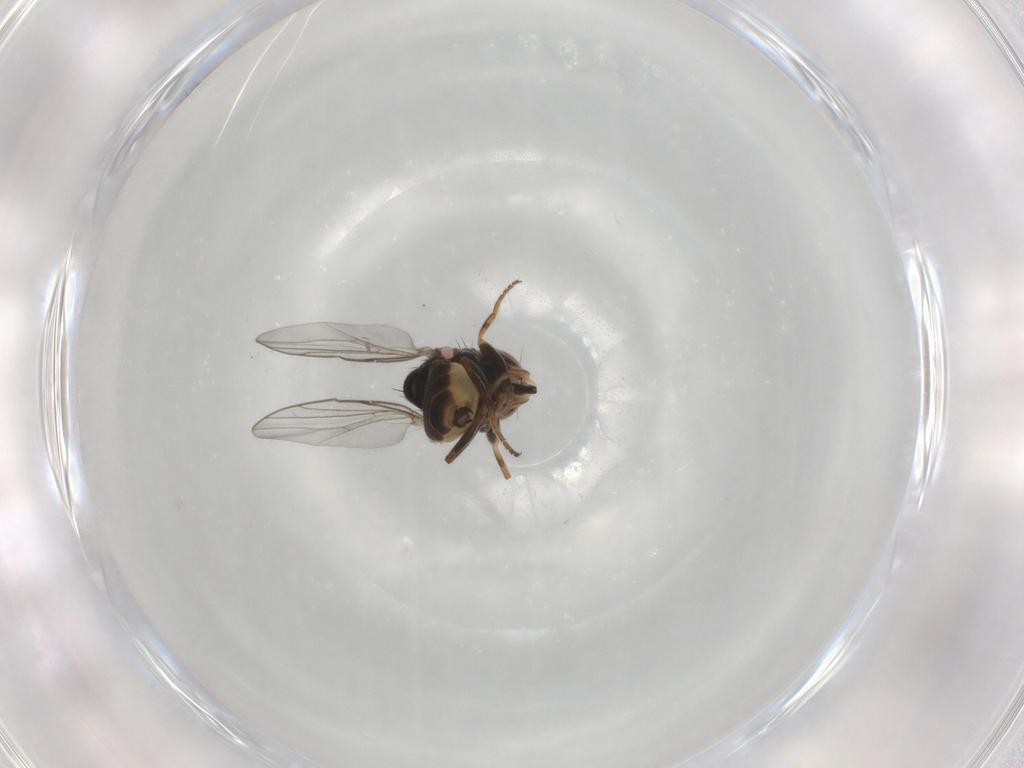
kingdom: Animalia
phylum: Arthropoda
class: Insecta
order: Diptera
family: Chloropidae
